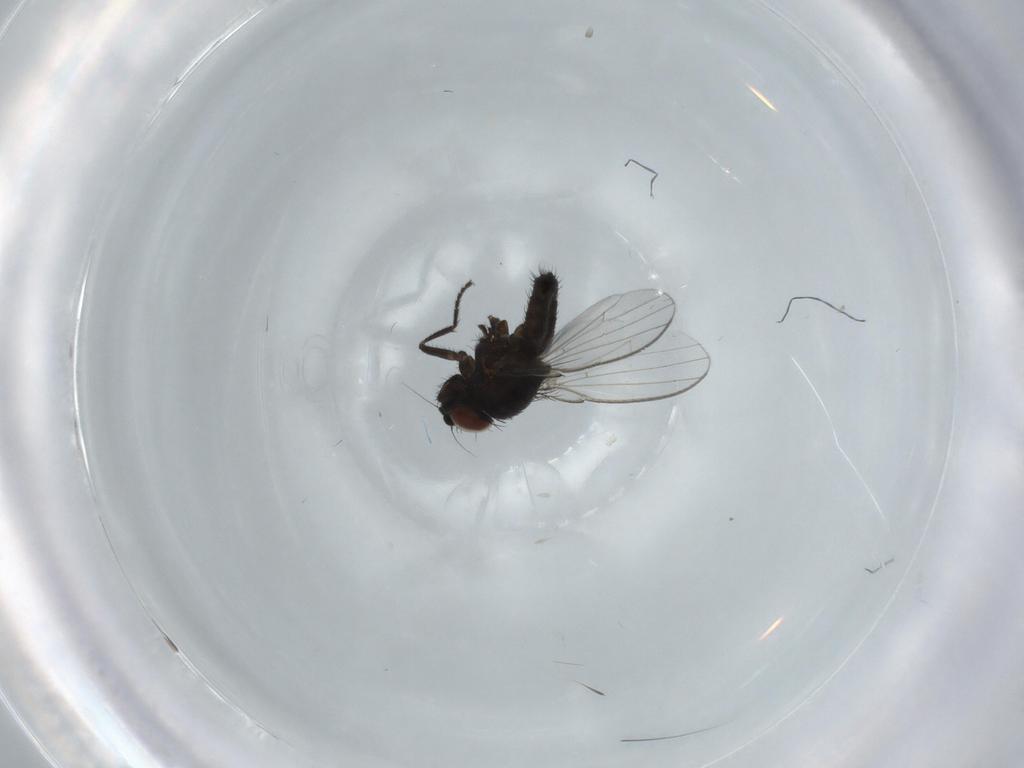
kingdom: Animalia
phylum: Arthropoda
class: Insecta
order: Diptera
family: Milichiidae
